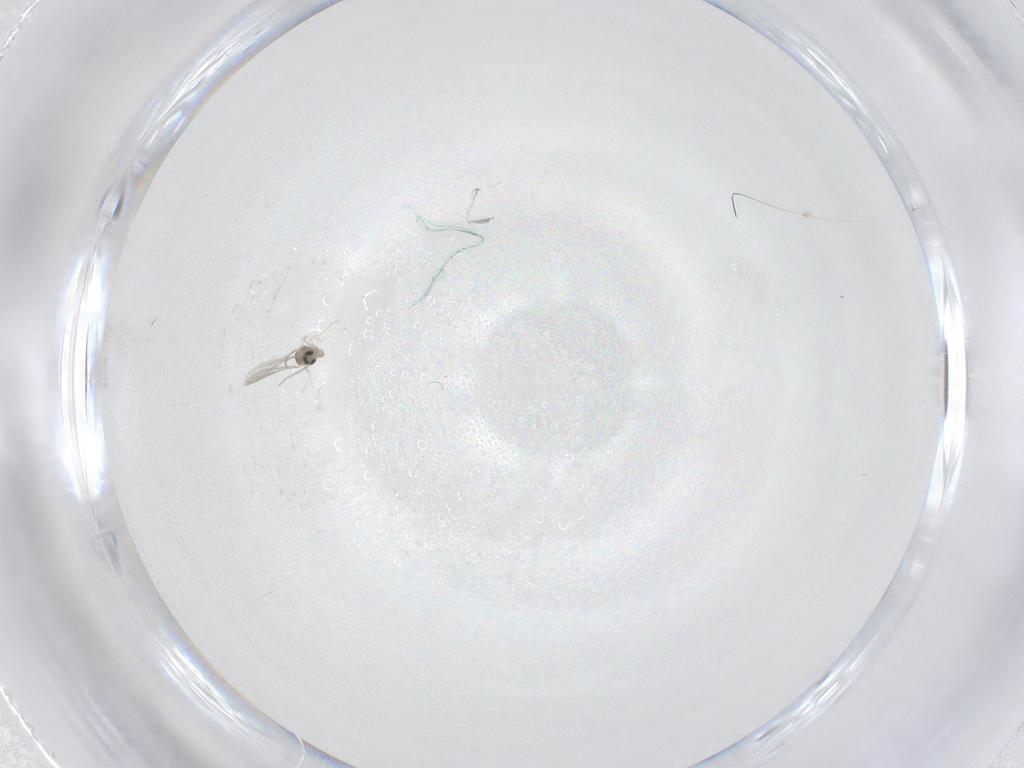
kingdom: Animalia
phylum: Arthropoda
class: Insecta
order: Diptera
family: Cecidomyiidae
